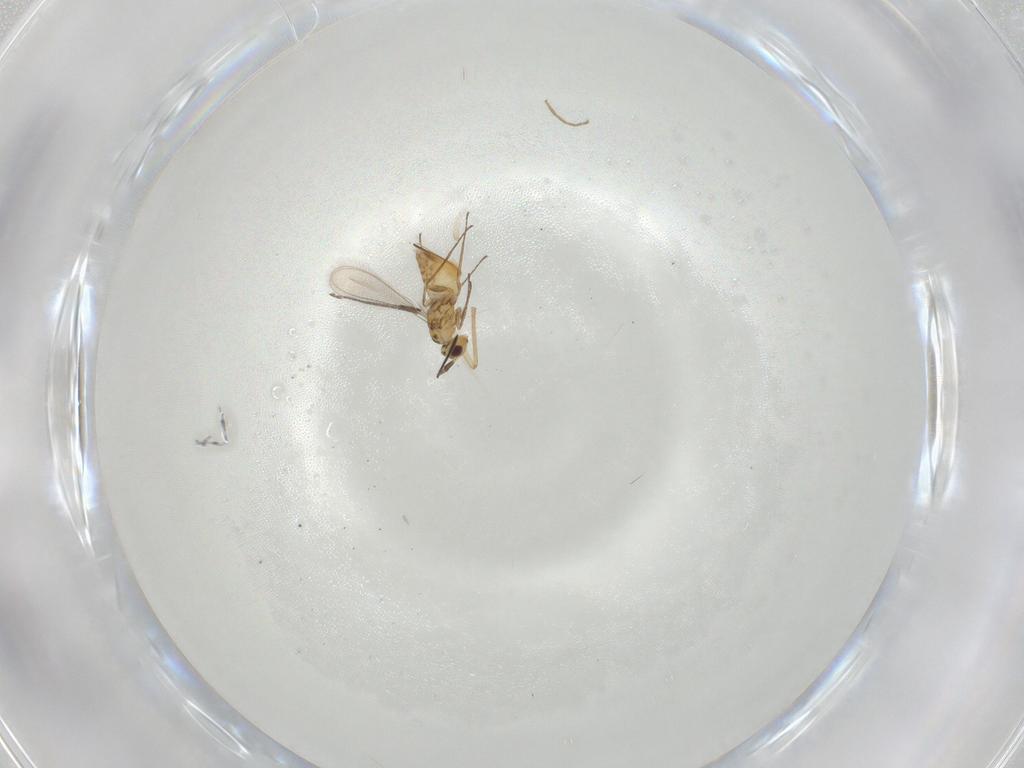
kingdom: Animalia
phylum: Arthropoda
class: Insecta
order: Hymenoptera
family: Mymaridae
